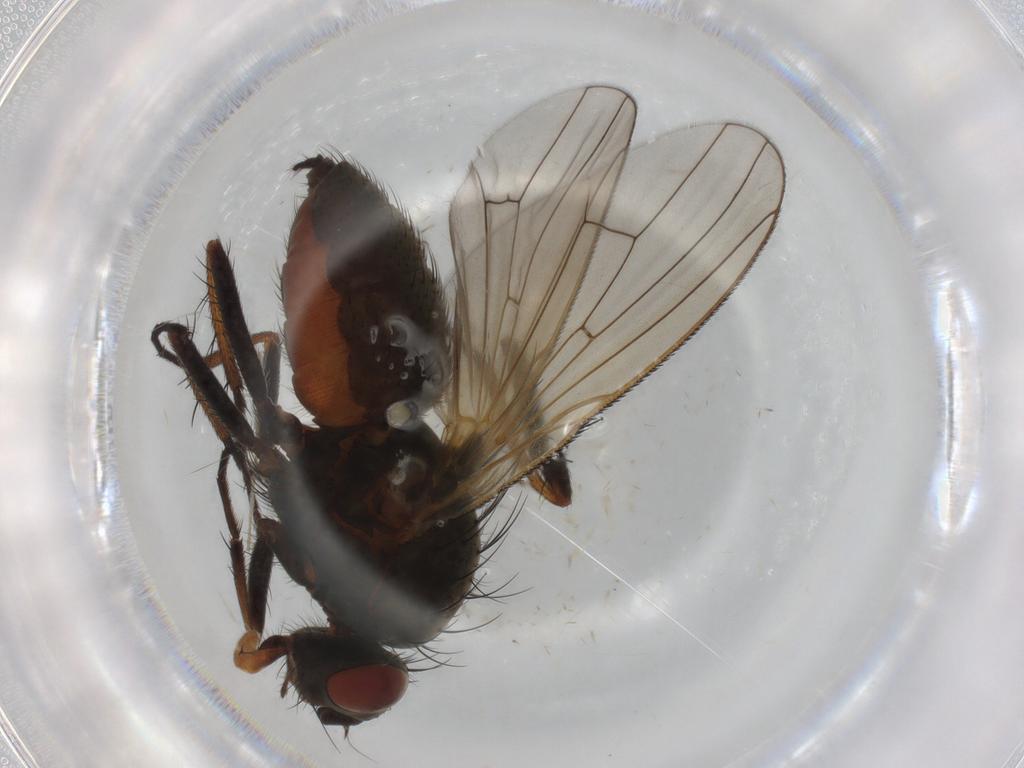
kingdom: Animalia
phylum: Arthropoda
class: Insecta
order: Diptera
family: Anthomyiidae
